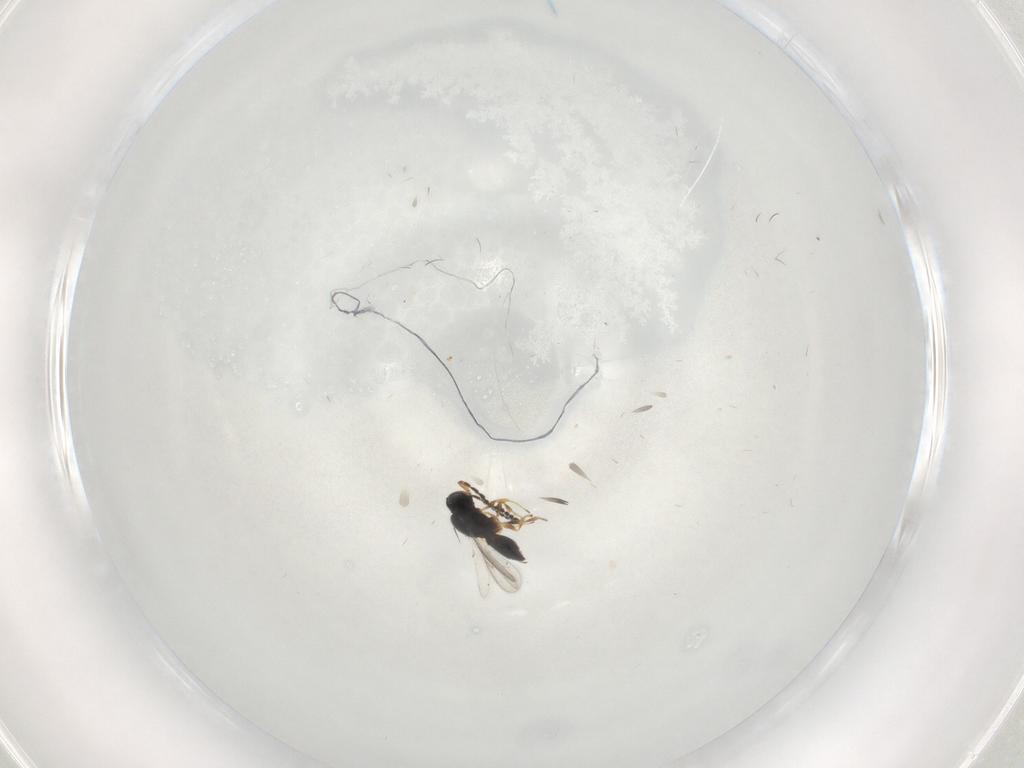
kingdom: Animalia
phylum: Arthropoda
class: Insecta
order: Hymenoptera
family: Scelionidae
